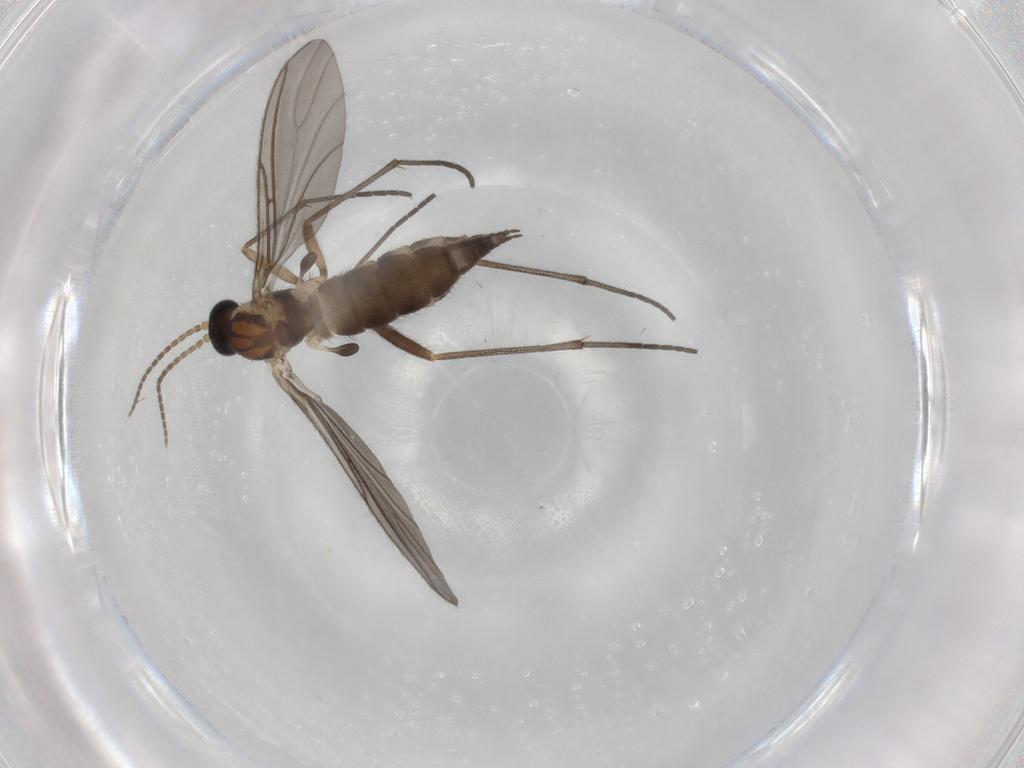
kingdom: Animalia
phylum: Arthropoda
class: Insecta
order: Diptera
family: Sciaridae
